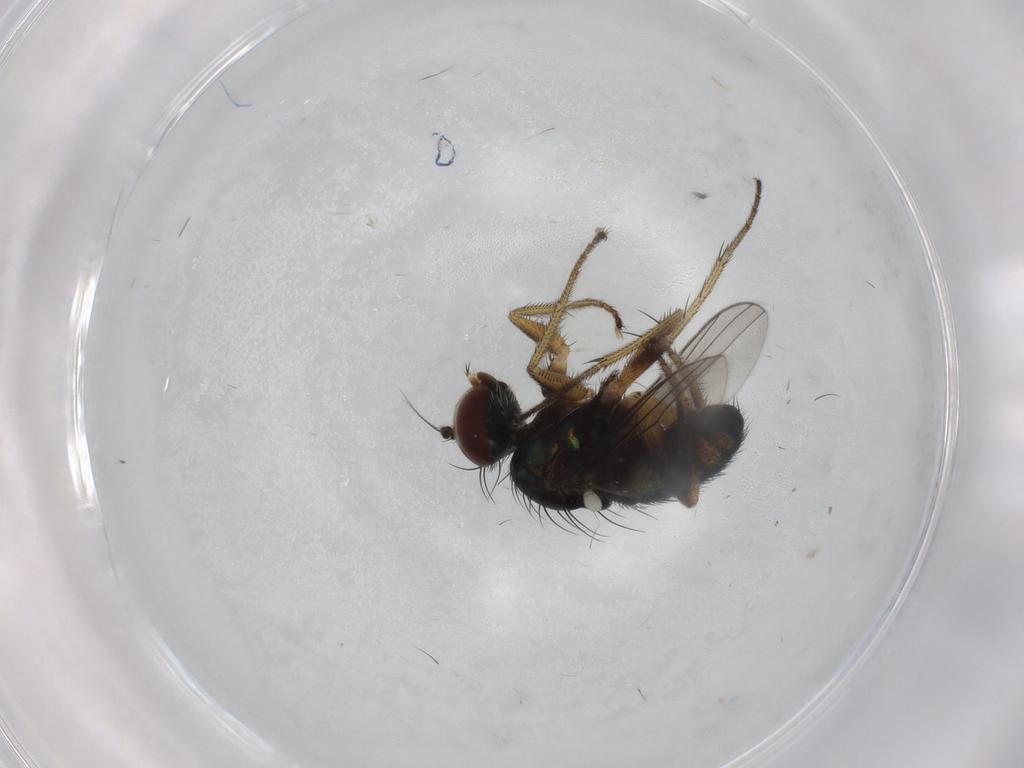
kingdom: Animalia
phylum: Arthropoda
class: Insecta
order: Diptera
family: Dolichopodidae
